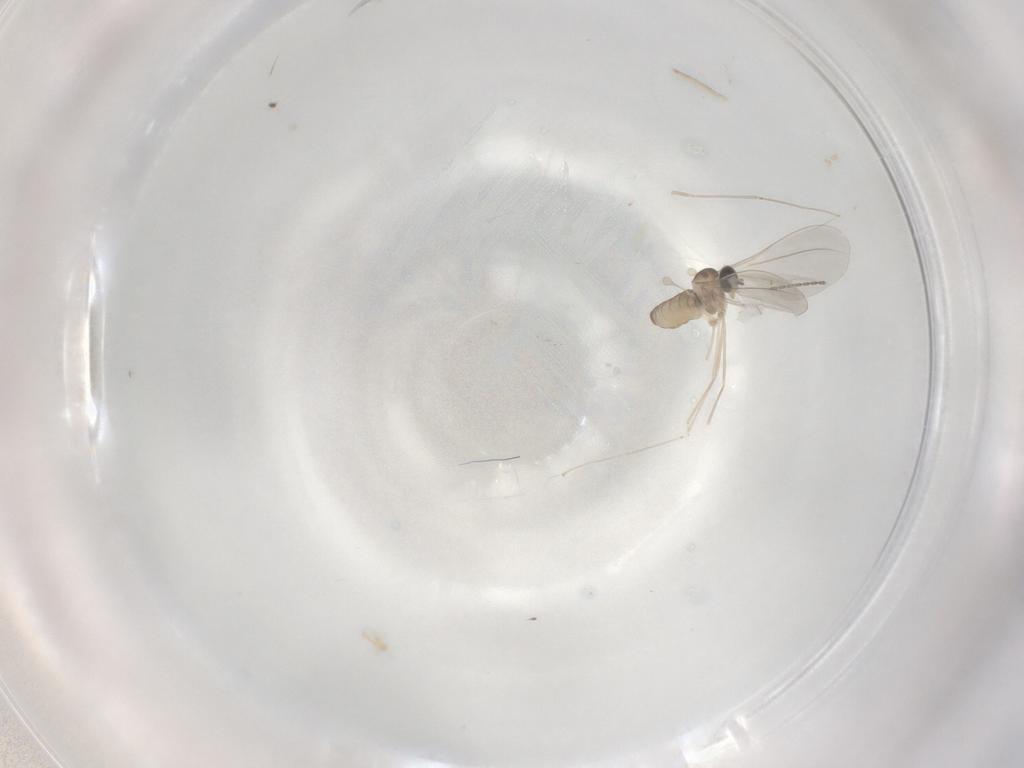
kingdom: Animalia
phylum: Arthropoda
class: Insecta
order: Diptera
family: Cecidomyiidae
